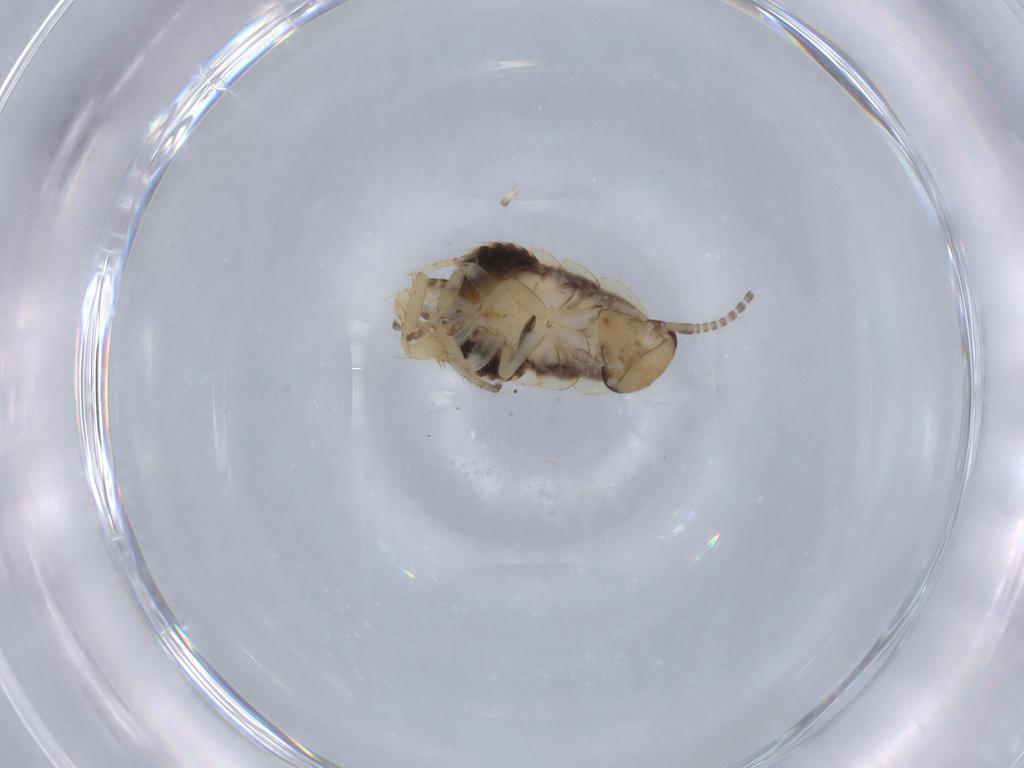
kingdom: Animalia
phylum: Arthropoda
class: Insecta
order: Blattodea
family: Ectobiidae
